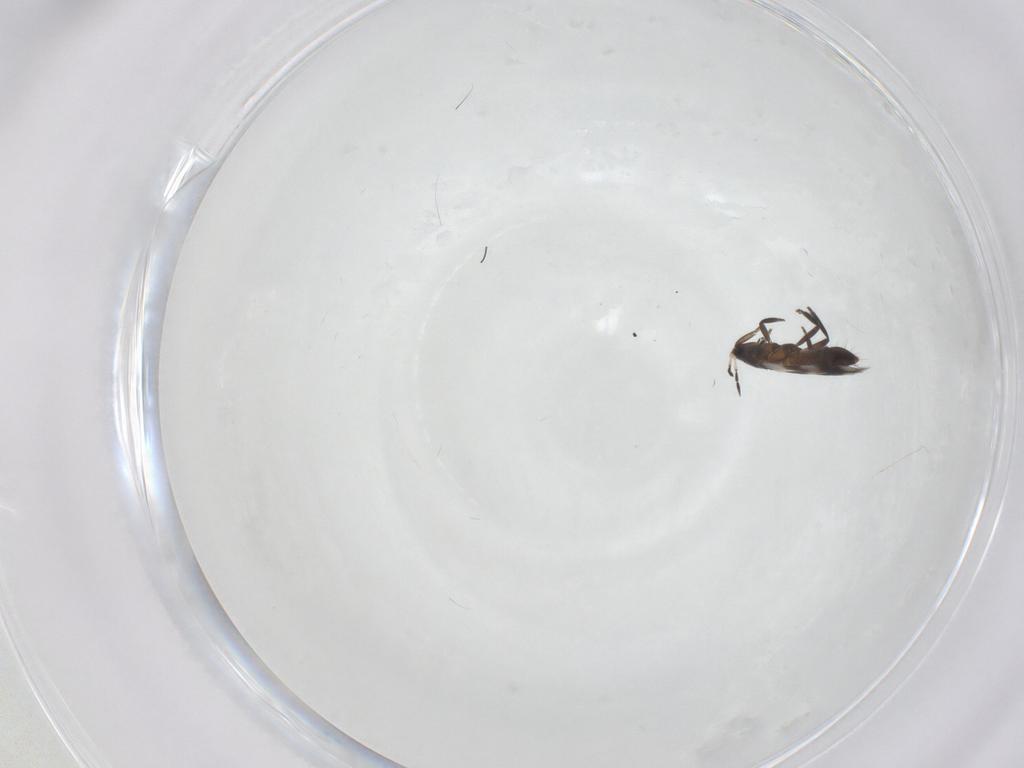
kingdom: Animalia
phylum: Arthropoda
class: Insecta
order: Thysanoptera
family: Aeolothripidae
